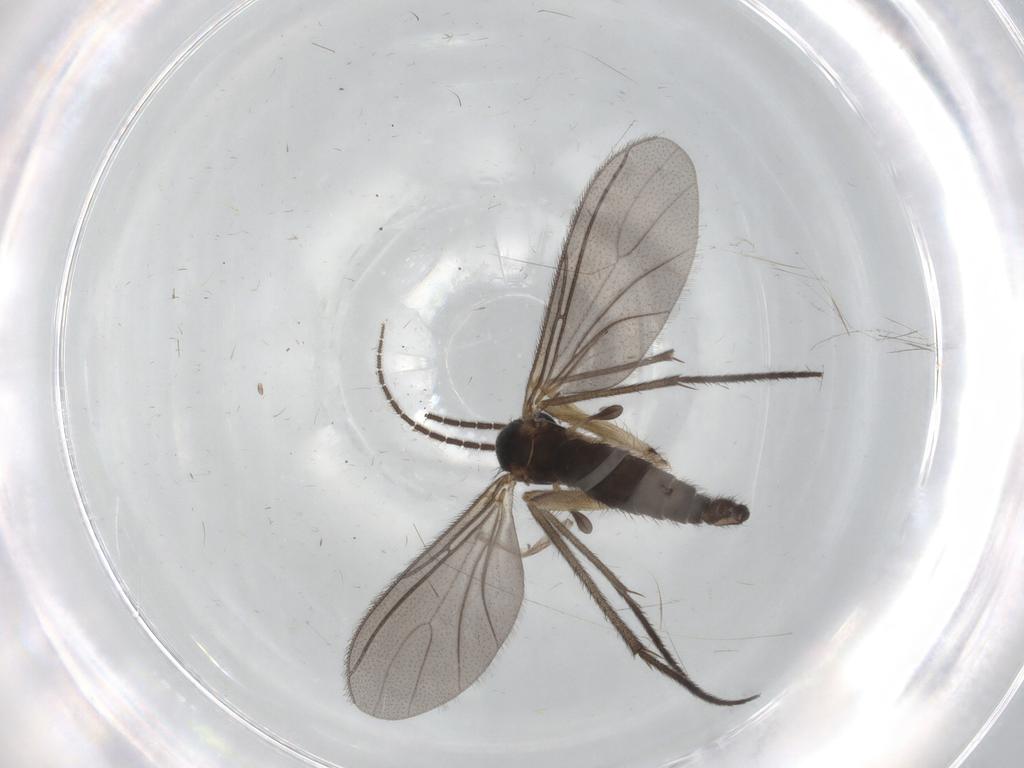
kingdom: Animalia
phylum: Arthropoda
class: Insecta
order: Diptera
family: Sciaridae
